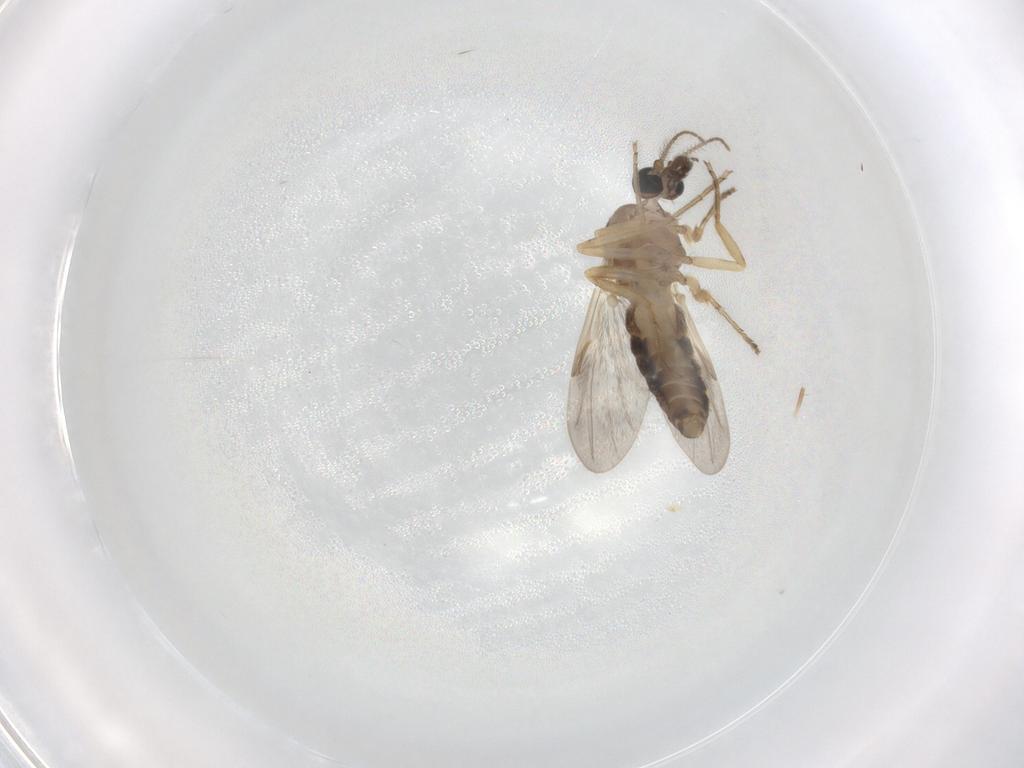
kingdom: Animalia
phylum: Arthropoda
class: Insecta
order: Diptera
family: Ceratopogonidae
